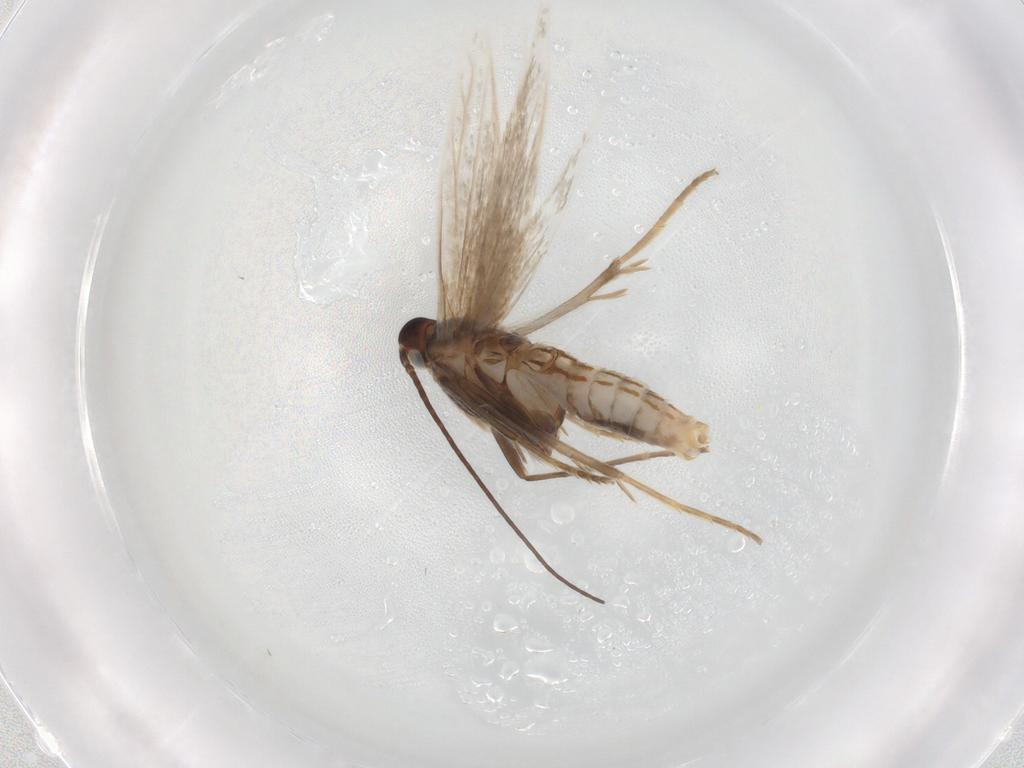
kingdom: Animalia
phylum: Arthropoda
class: Insecta
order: Lepidoptera
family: Coleophoridae
